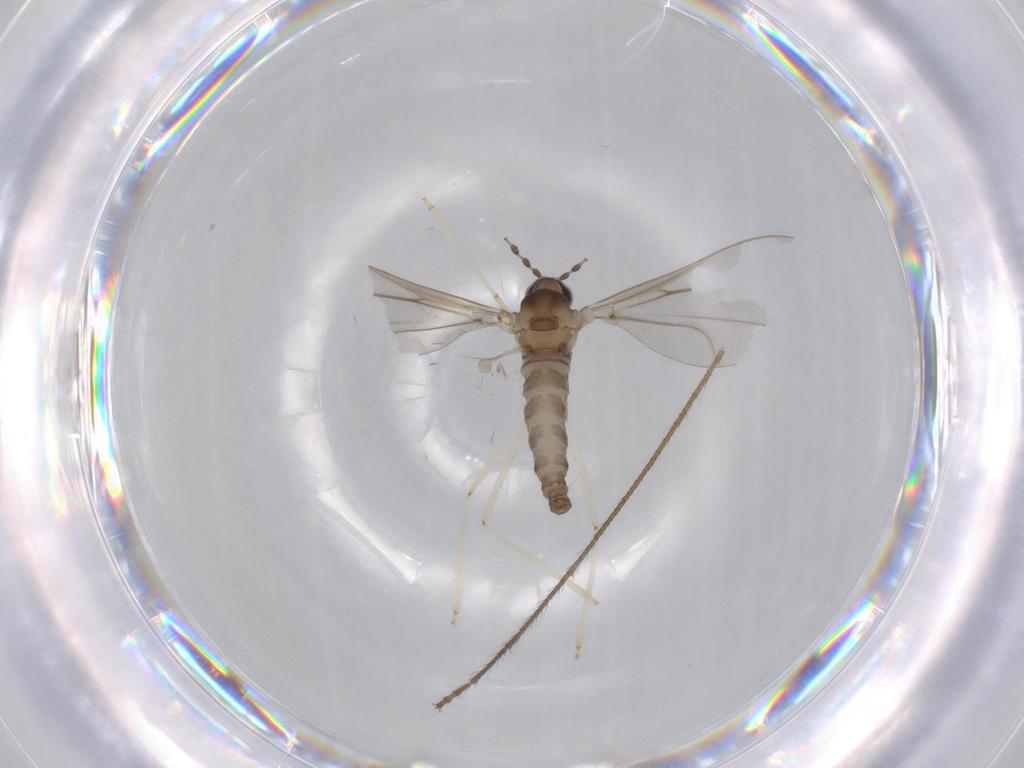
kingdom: Animalia
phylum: Arthropoda
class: Insecta
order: Diptera
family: Cecidomyiidae
